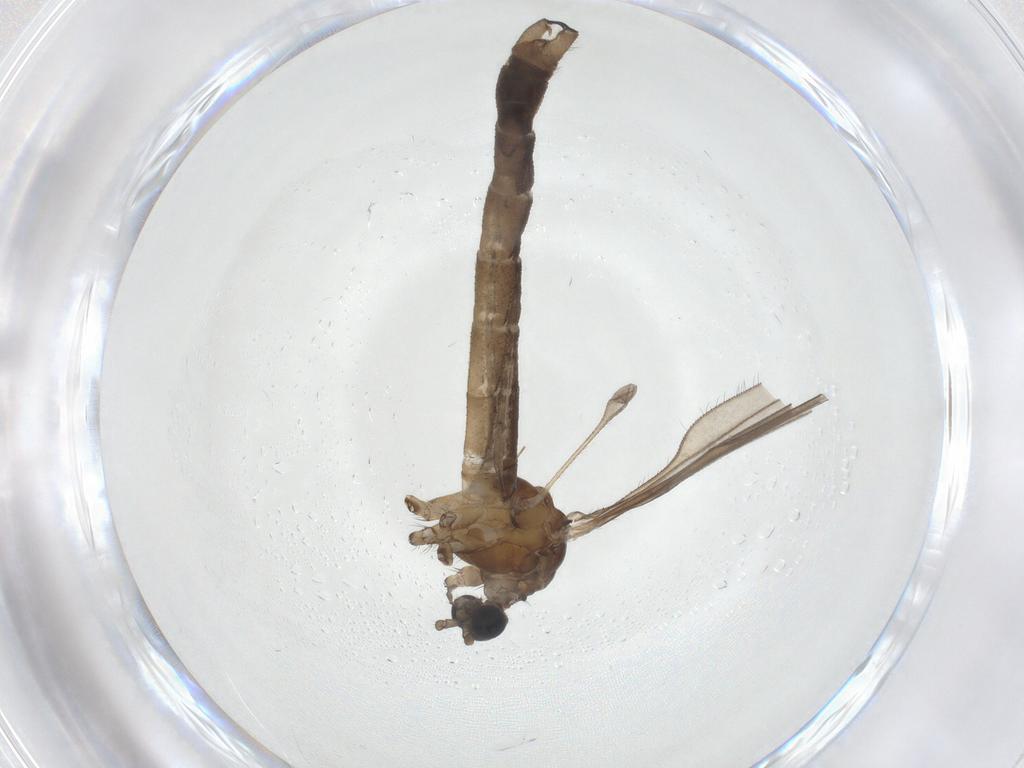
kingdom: Animalia
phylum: Arthropoda
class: Insecta
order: Diptera
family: Limoniidae
